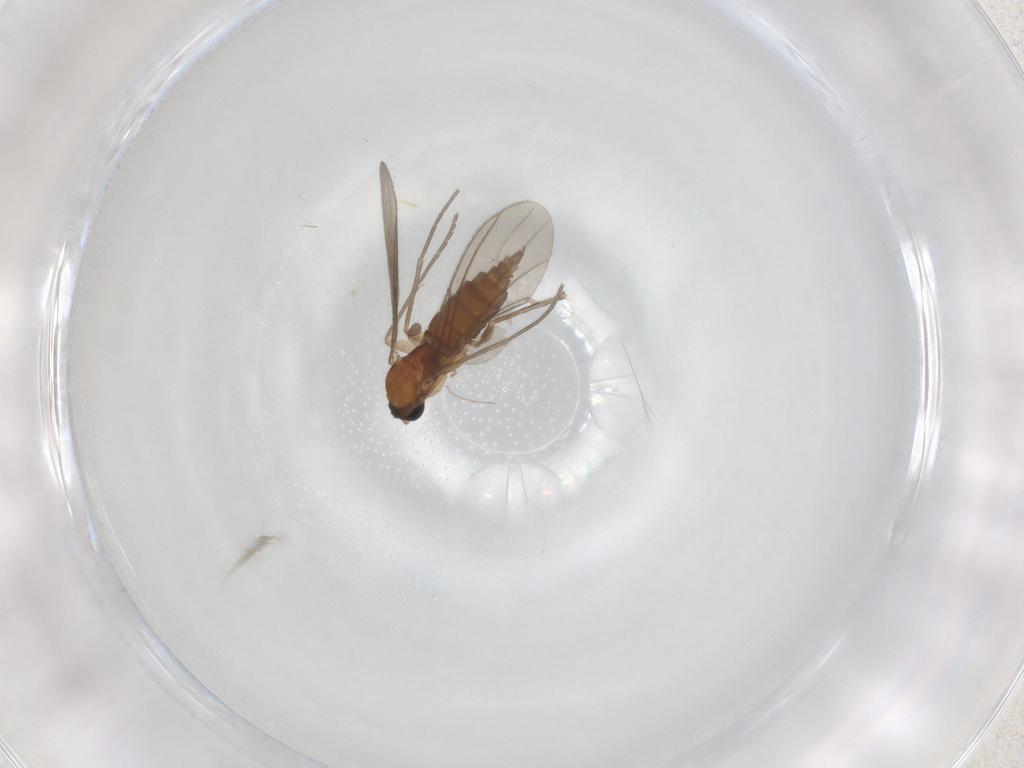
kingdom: Animalia
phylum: Arthropoda
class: Insecta
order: Diptera
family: Sciaridae
